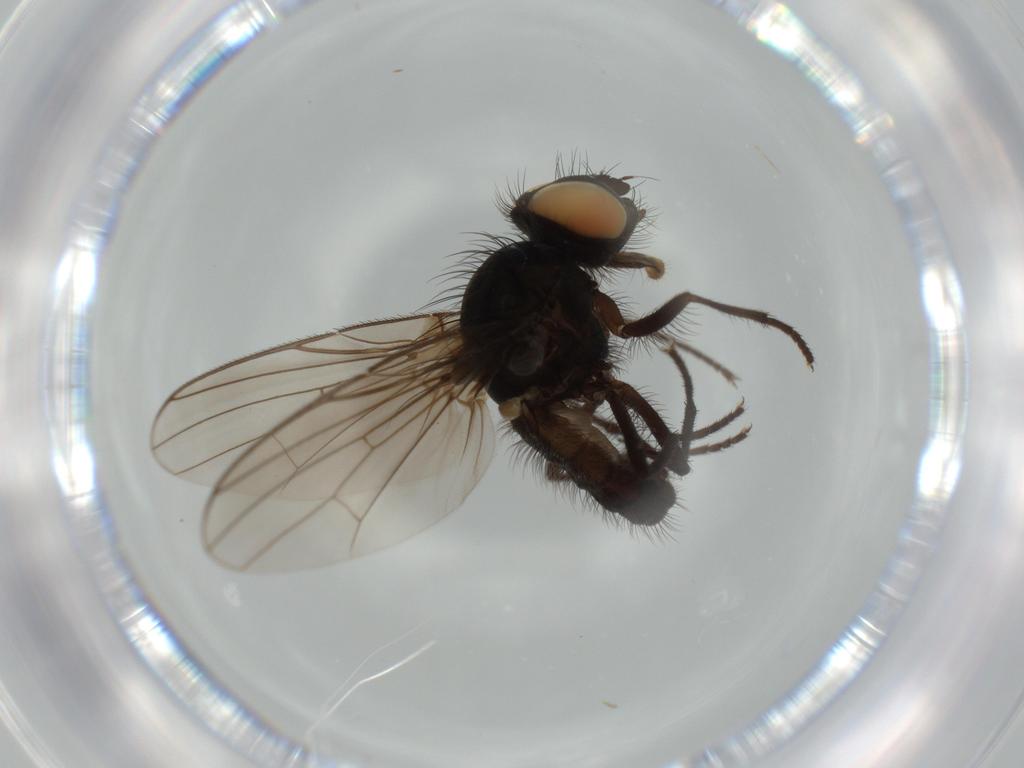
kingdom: Animalia
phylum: Arthropoda
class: Insecta
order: Diptera
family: Anthomyiidae
